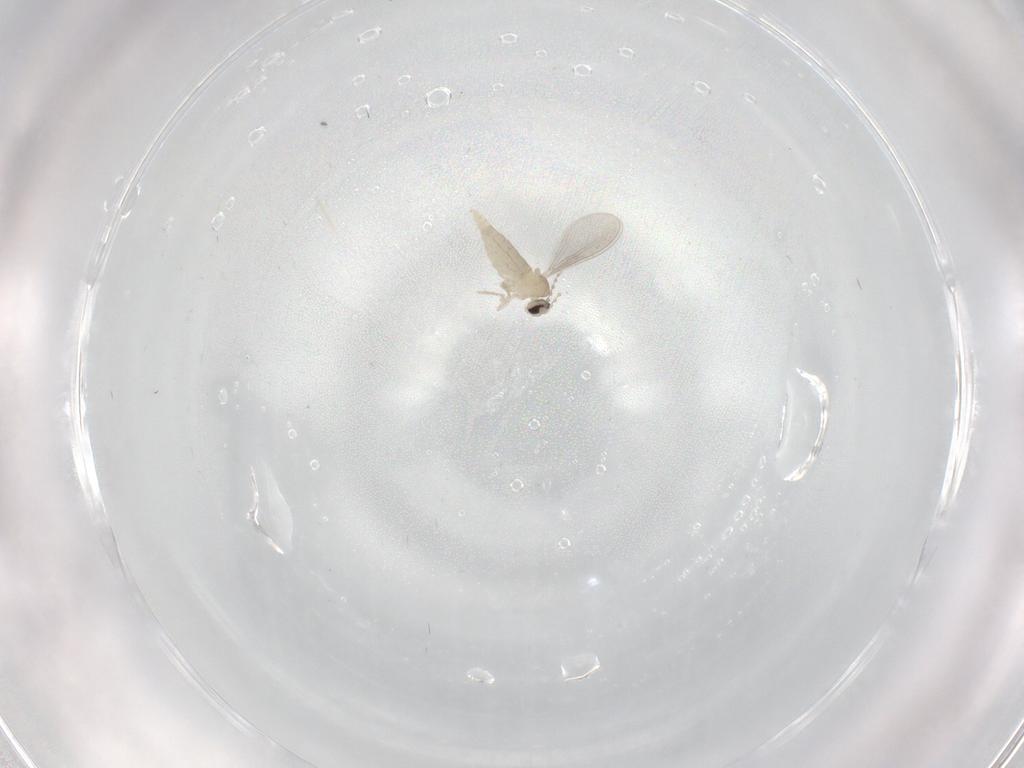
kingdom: Animalia
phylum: Arthropoda
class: Insecta
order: Diptera
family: Cecidomyiidae
